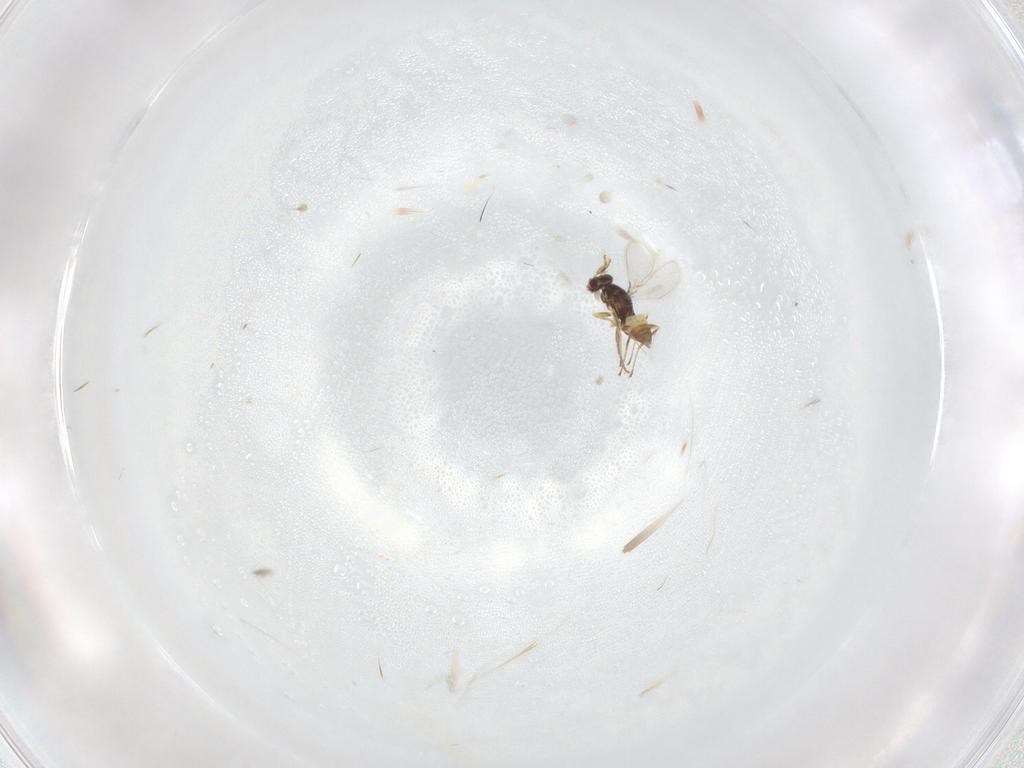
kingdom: Animalia
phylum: Arthropoda
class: Insecta
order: Hymenoptera
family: Mymaridae
